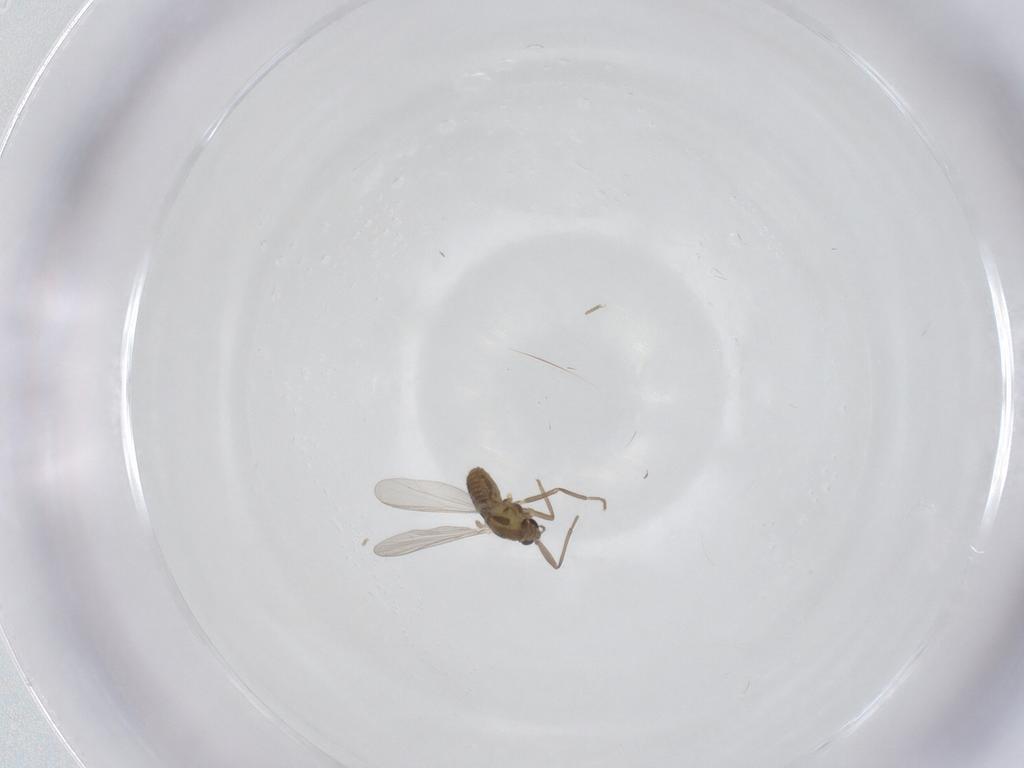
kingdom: Animalia
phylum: Arthropoda
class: Insecta
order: Diptera
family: Chironomidae
